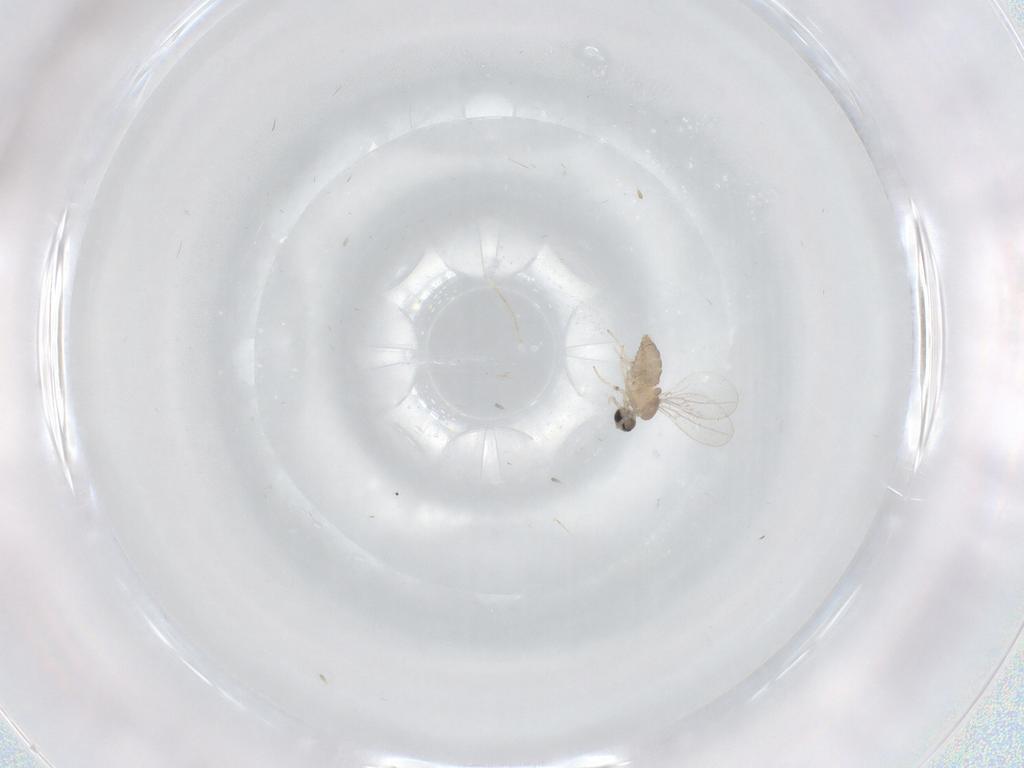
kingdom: Animalia
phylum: Arthropoda
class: Insecta
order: Diptera
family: Cecidomyiidae
